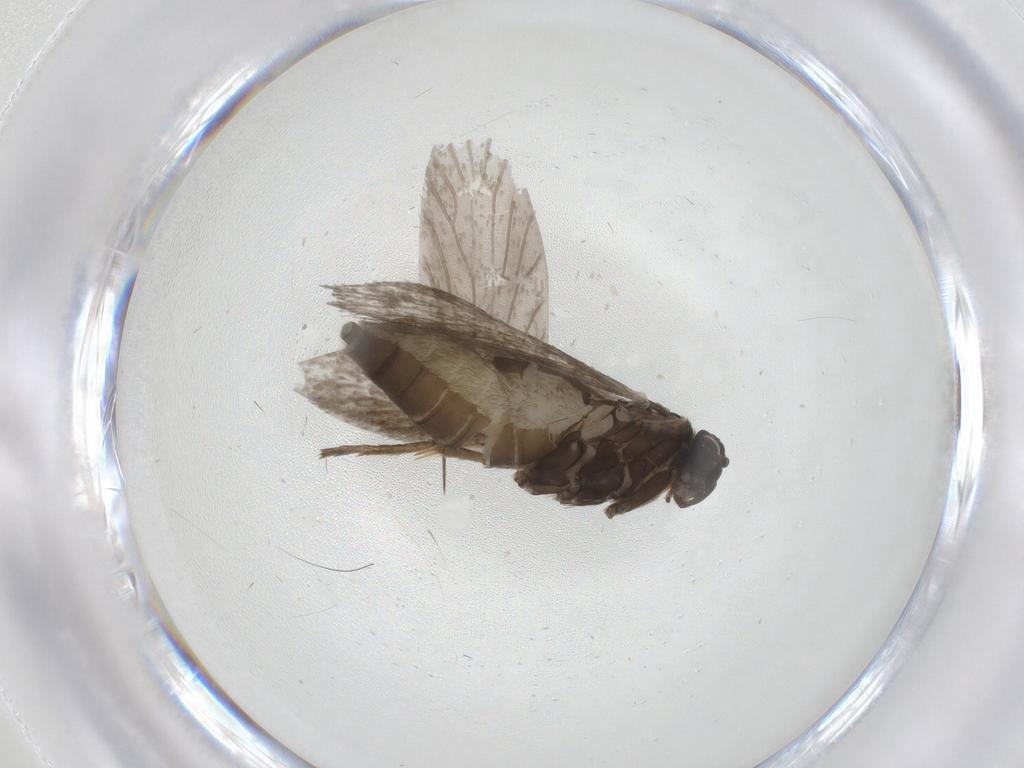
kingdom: Animalia
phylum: Arthropoda
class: Insecta
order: Lepidoptera
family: Micropterigidae
